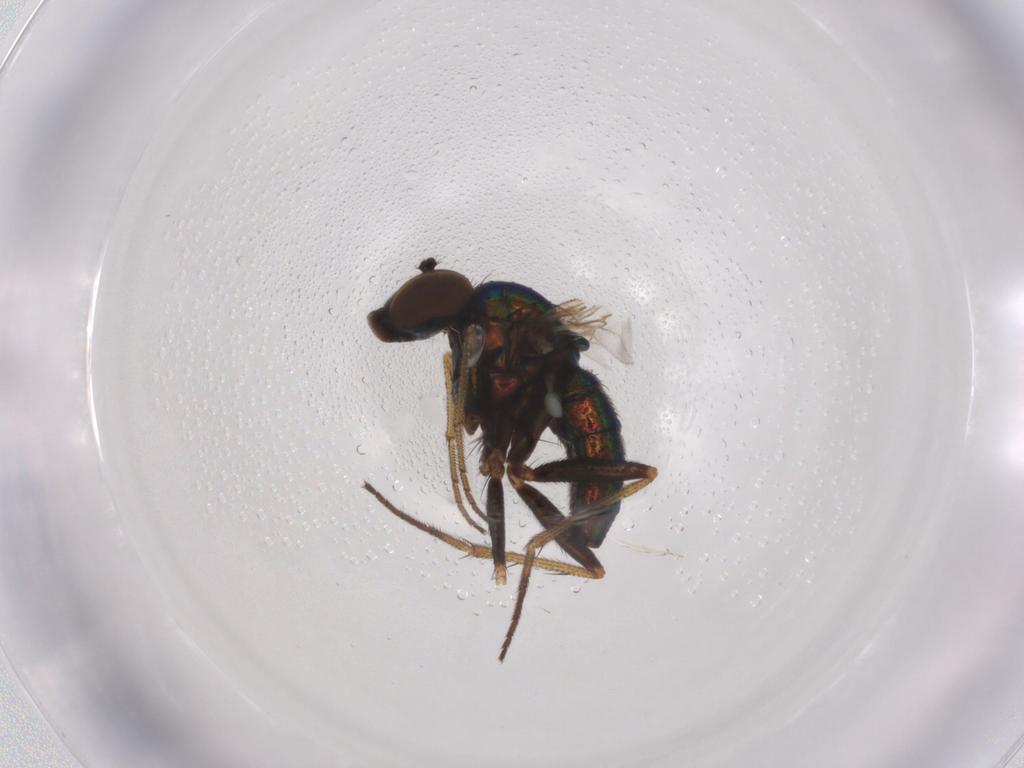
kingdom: Animalia
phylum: Arthropoda
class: Insecta
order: Diptera
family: Dolichopodidae
